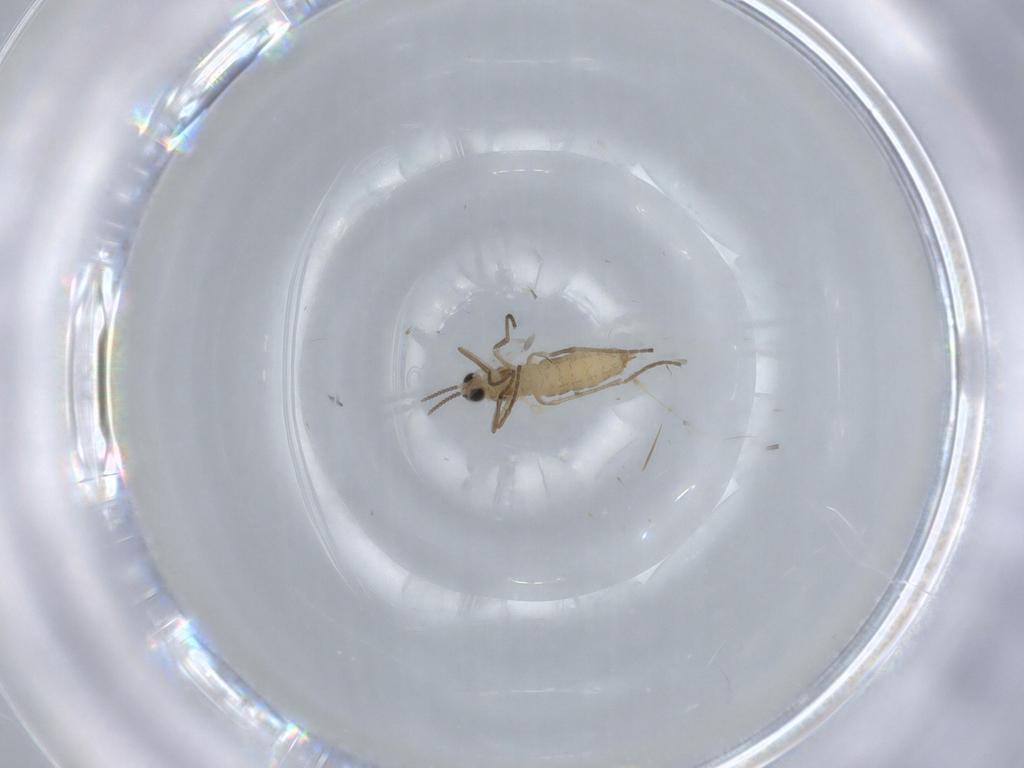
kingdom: Animalia
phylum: Arthropoda
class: Insecta
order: Diptera
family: Cecidomyiidae
